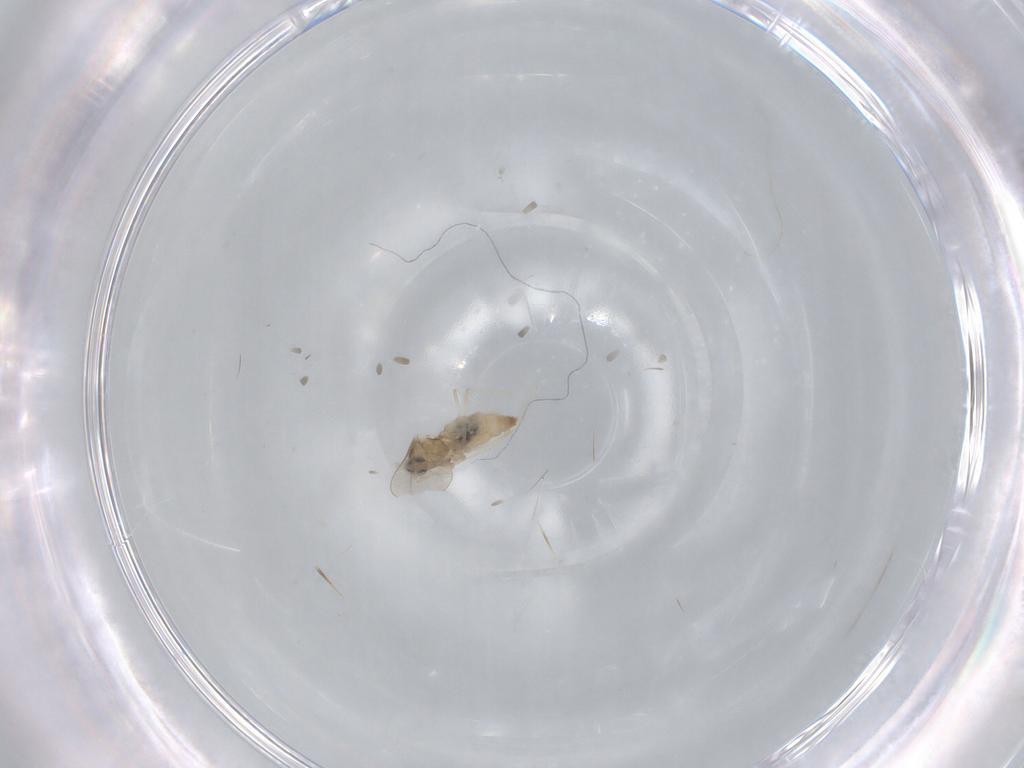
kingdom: Animalia
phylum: Arthropoda
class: Insecta
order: Diptera
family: Cecidomyiidae
